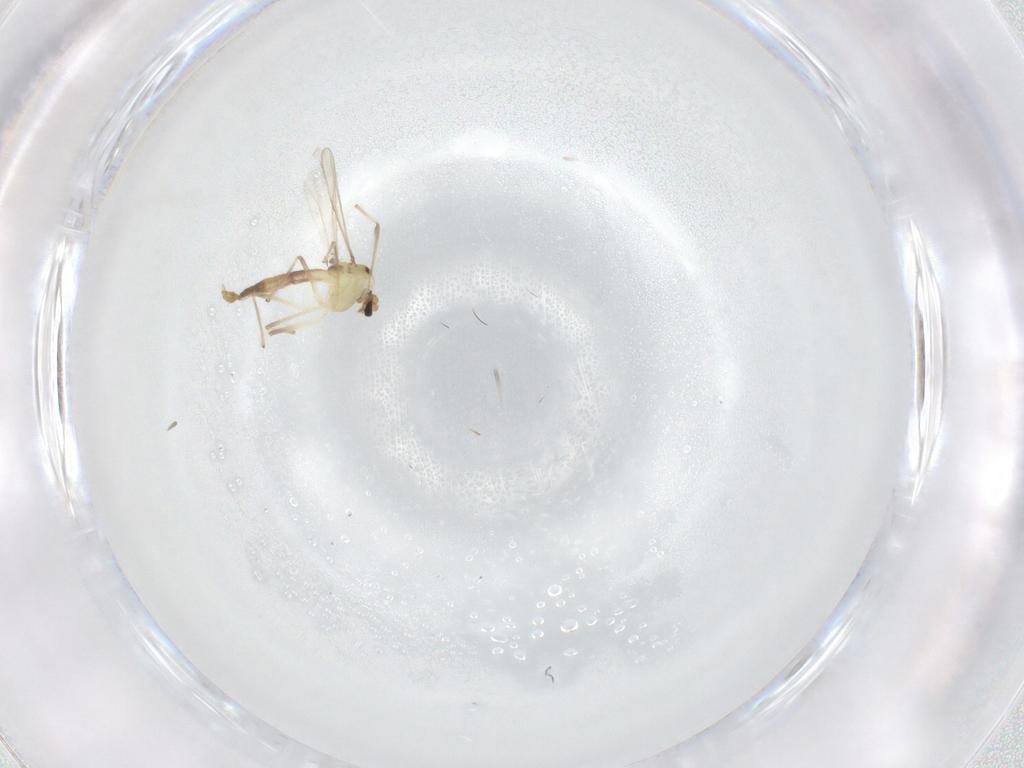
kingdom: Animalia
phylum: Arthropoda
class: Insecta
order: Diptera
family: Chironomidae
